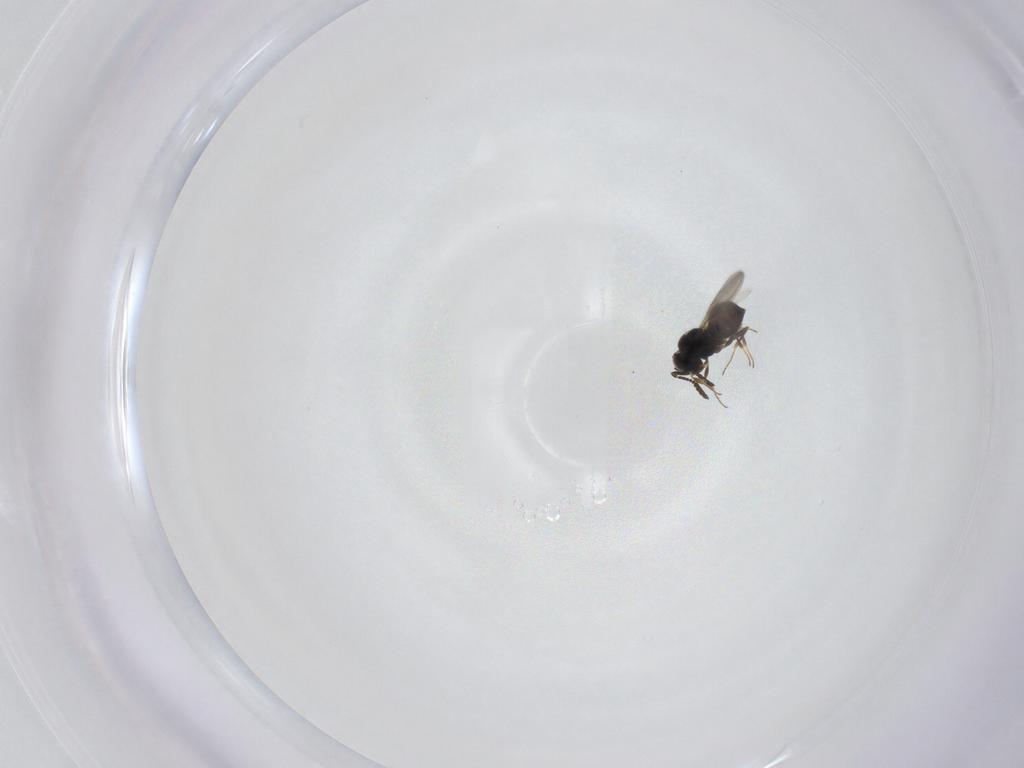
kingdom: Animalia
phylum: Arthropoda
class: Insecta
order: Hymenoptera
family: Scelionidae
